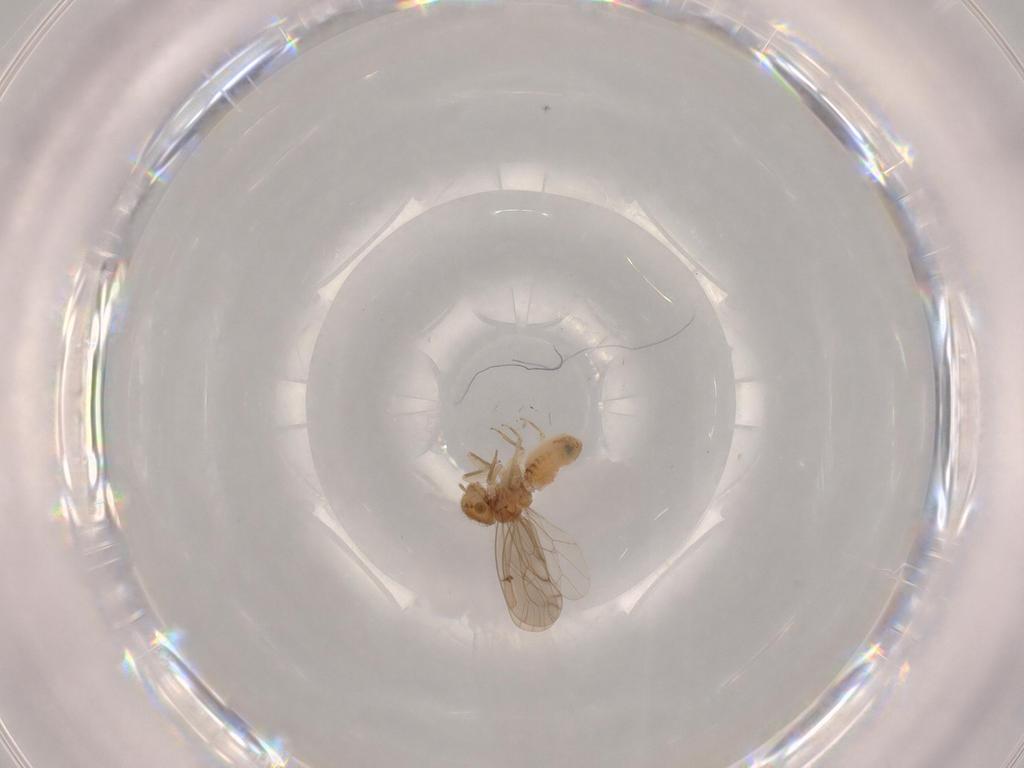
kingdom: Animalia
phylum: Arthropoda
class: Insecta
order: Psocodea
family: Ectopsocidae
